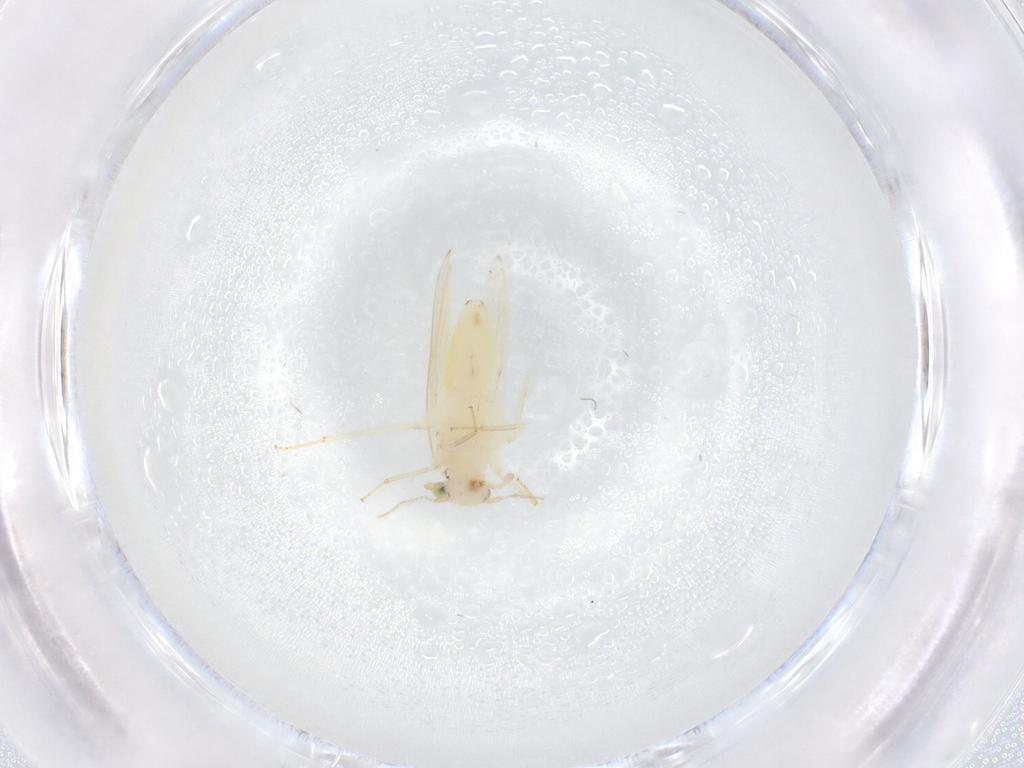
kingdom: Animalia
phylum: Arthropoda
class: Insecta
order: Psocodea
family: Lepidopsocidae
